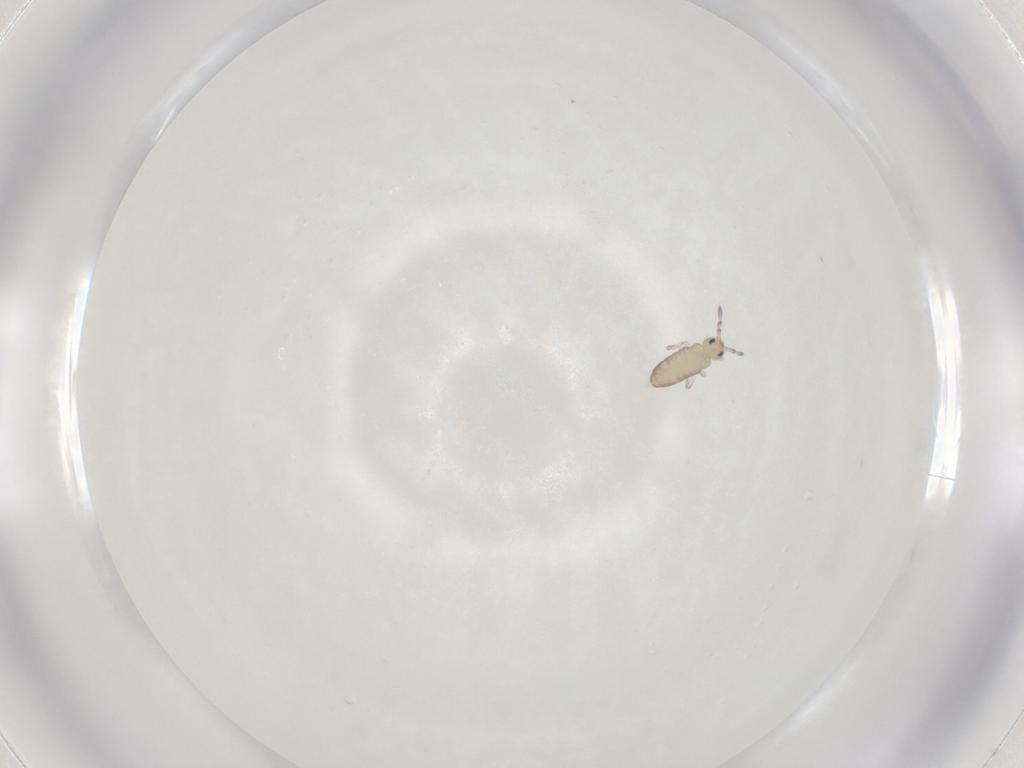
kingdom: Animalia
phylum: Arthropoda
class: Collembola
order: Entomobryomorpha
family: Entomobryidae
